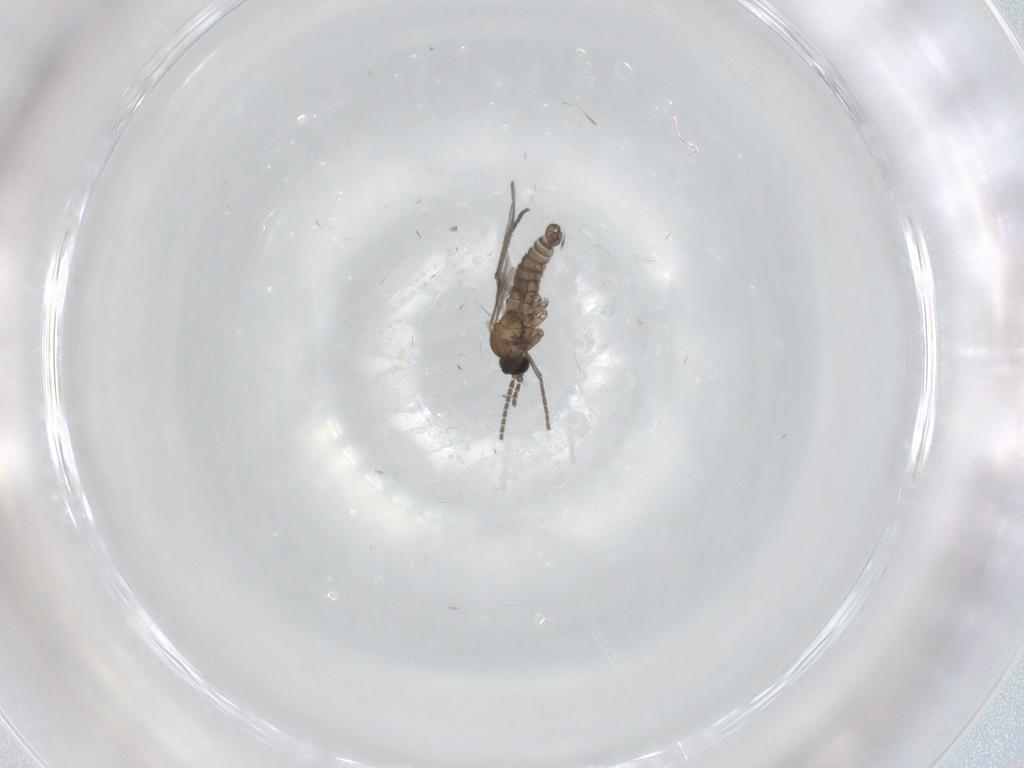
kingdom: Animalia
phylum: Arthropoda
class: Insecta
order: Diptera
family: Sciaridae
